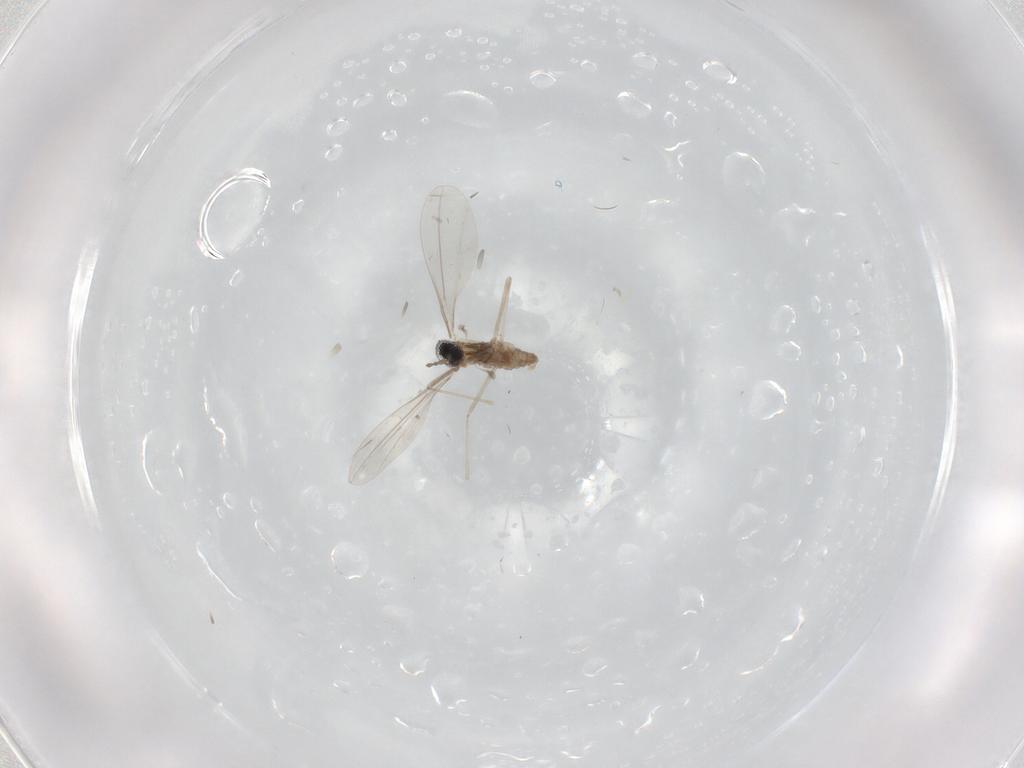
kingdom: Animalia
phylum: Arthropoda
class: Insecta
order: Diptera
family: Cecidomyiidae
